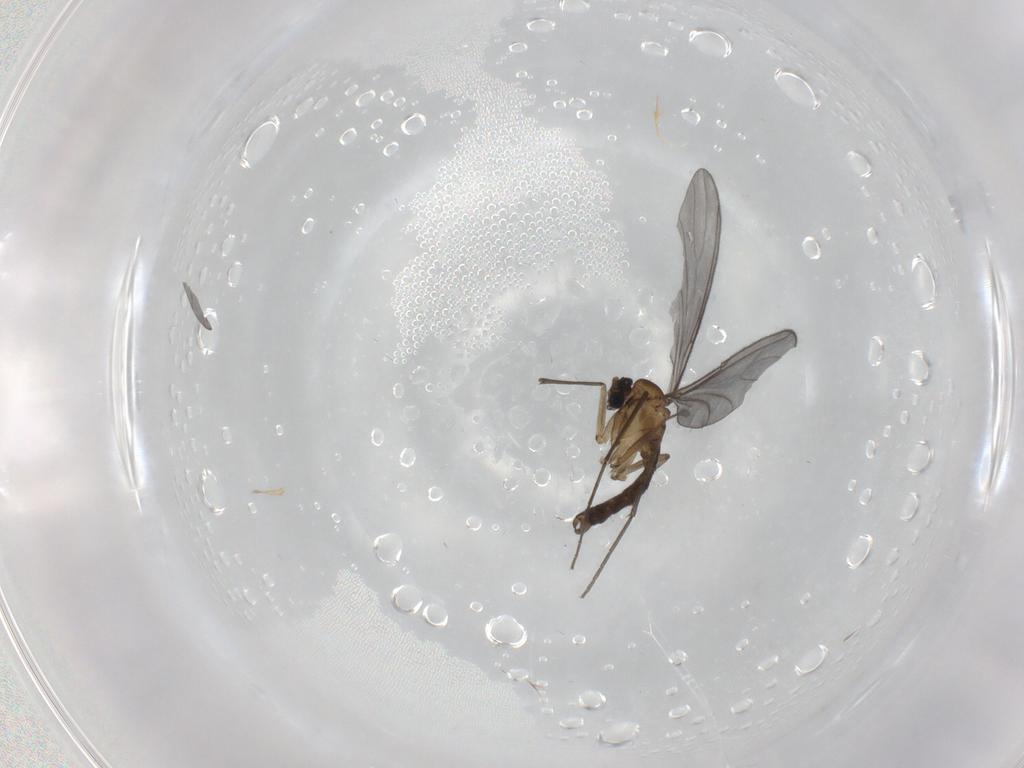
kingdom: Animalia
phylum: Arthropoda
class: Insecta
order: Diptera
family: Sciaridae
